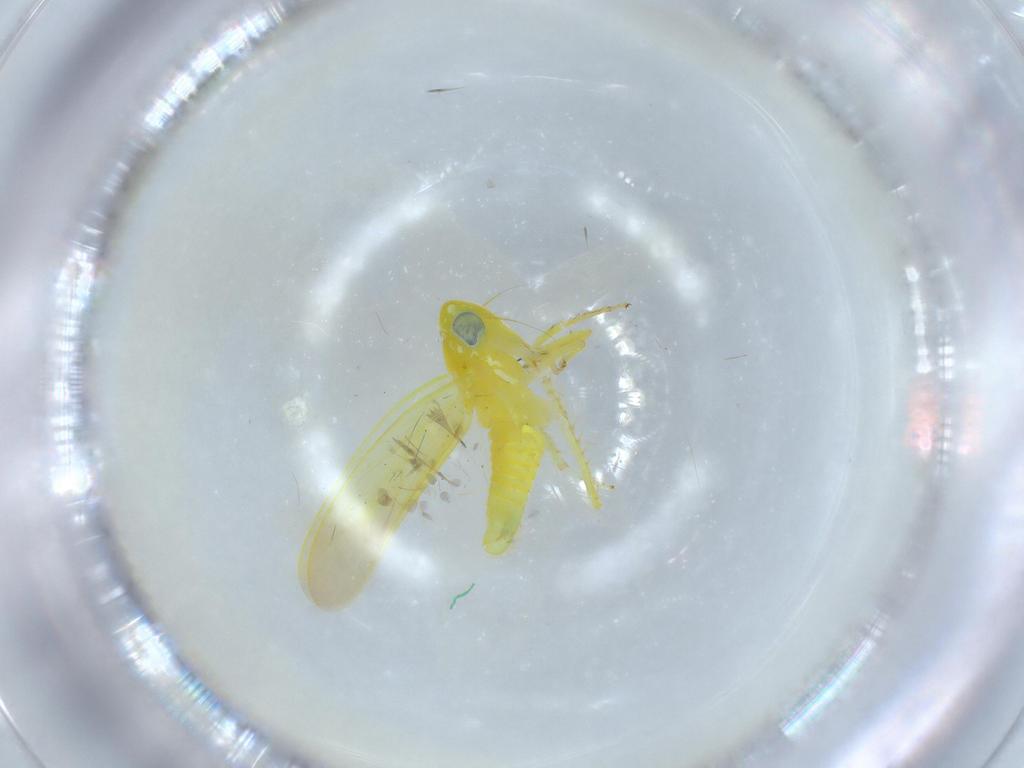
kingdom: Animalia
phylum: Arthropoda
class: Insecta
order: Hemiptera
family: Cicadellidae
